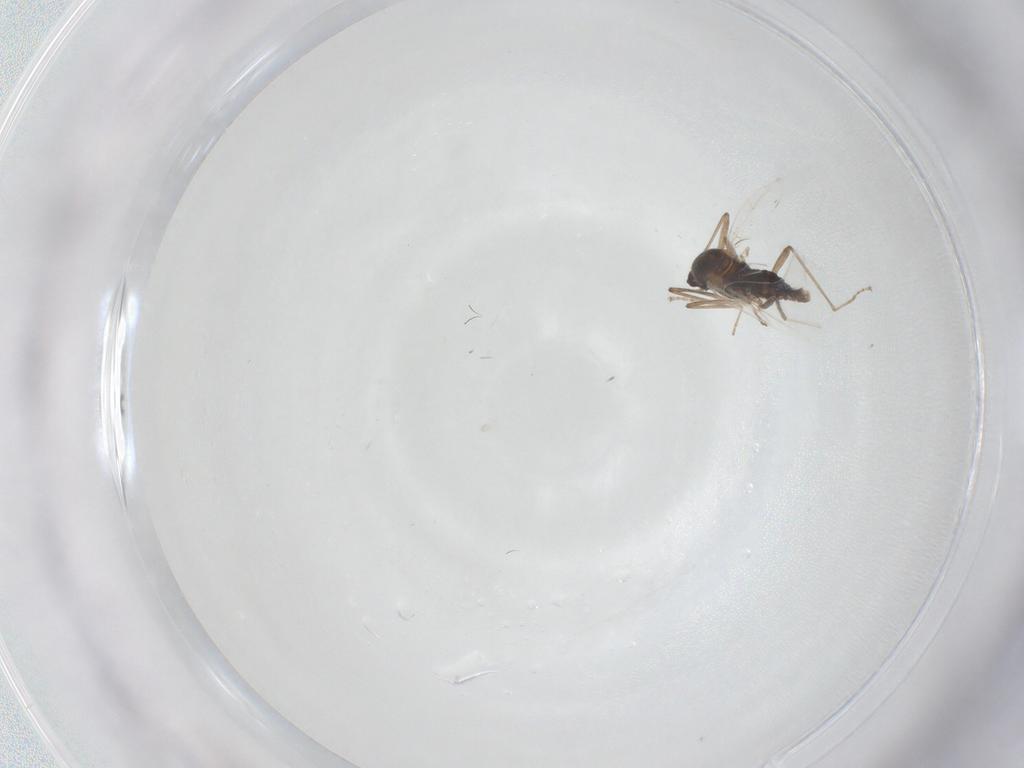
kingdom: Animalia
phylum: Arthropoda
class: Insecta
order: Diptera
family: Cecidomyiidae
